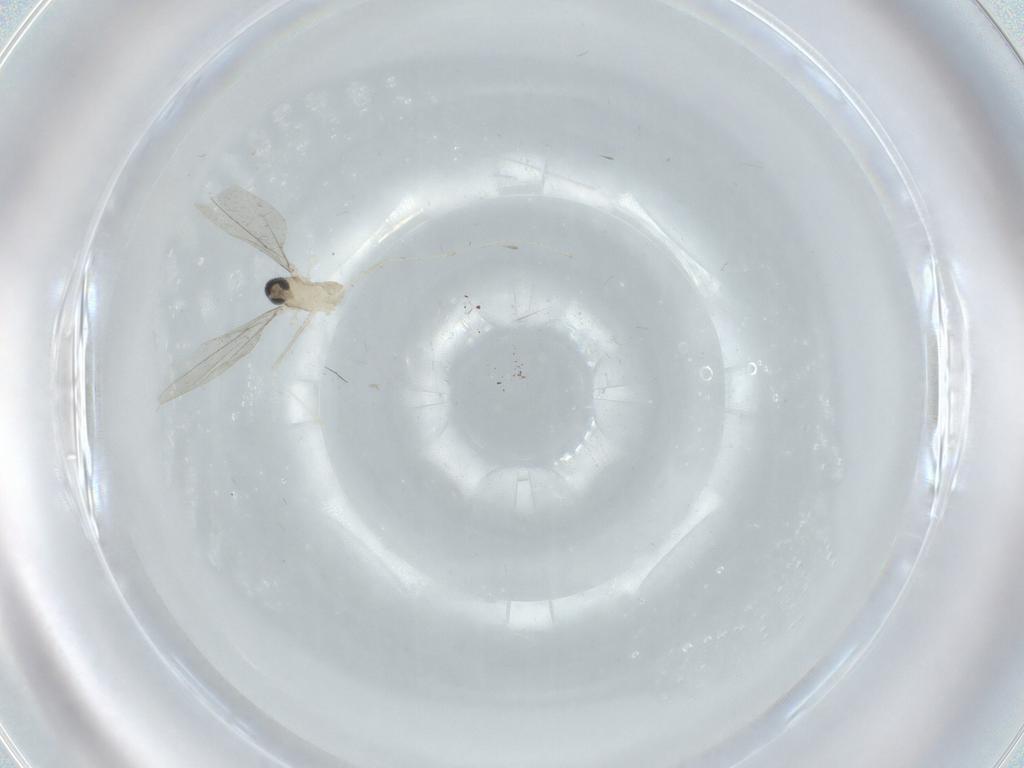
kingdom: Animalia
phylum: Arthropoda
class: Insecta
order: Diptera
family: Cecidomyiidae
